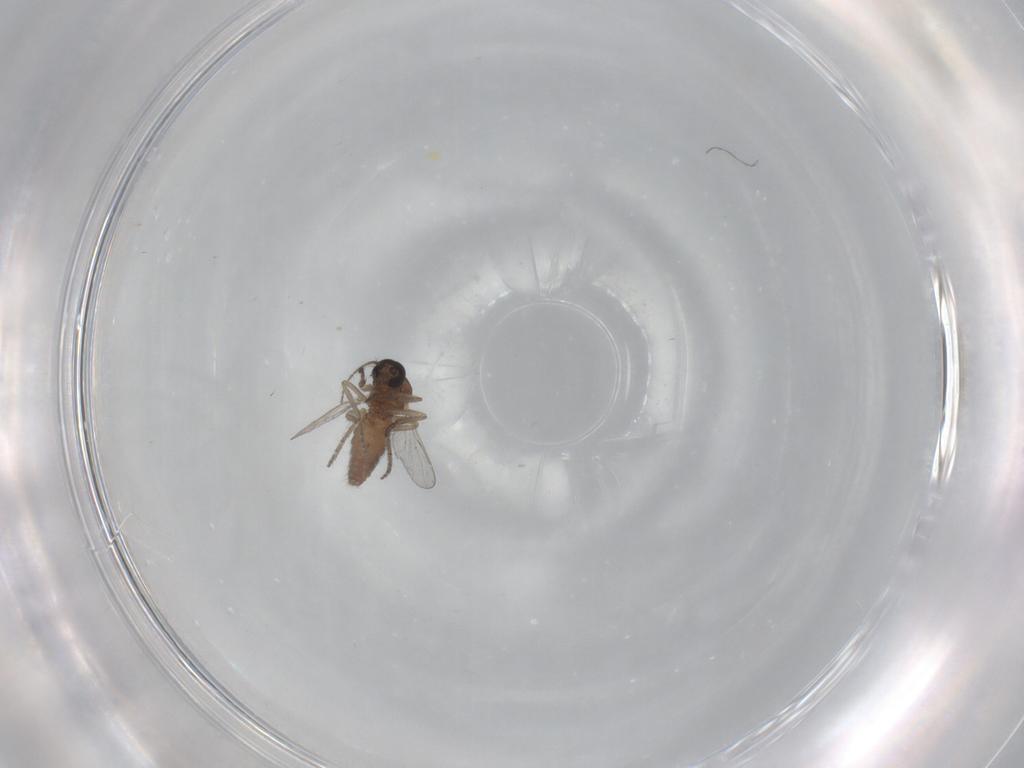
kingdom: Animalia
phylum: Arthropoda
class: Insecta
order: Diptera
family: Ceratopogonidae
